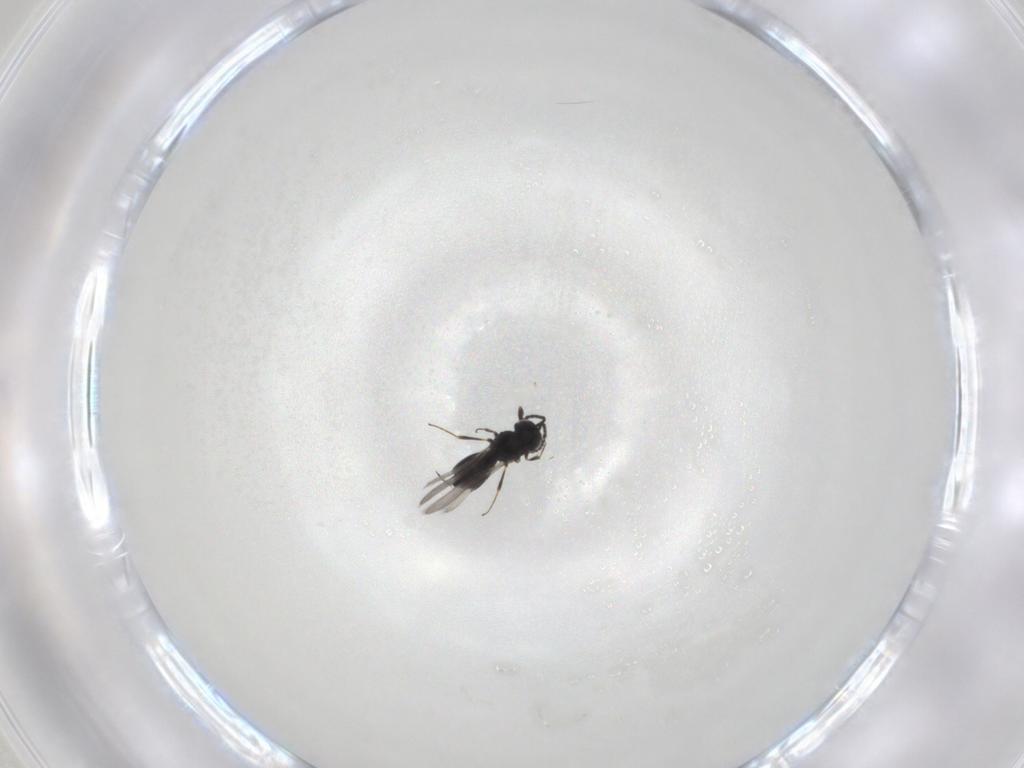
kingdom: Animalia
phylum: Arthropoda
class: Insecta
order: Hymenoptera
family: Scelionidae
